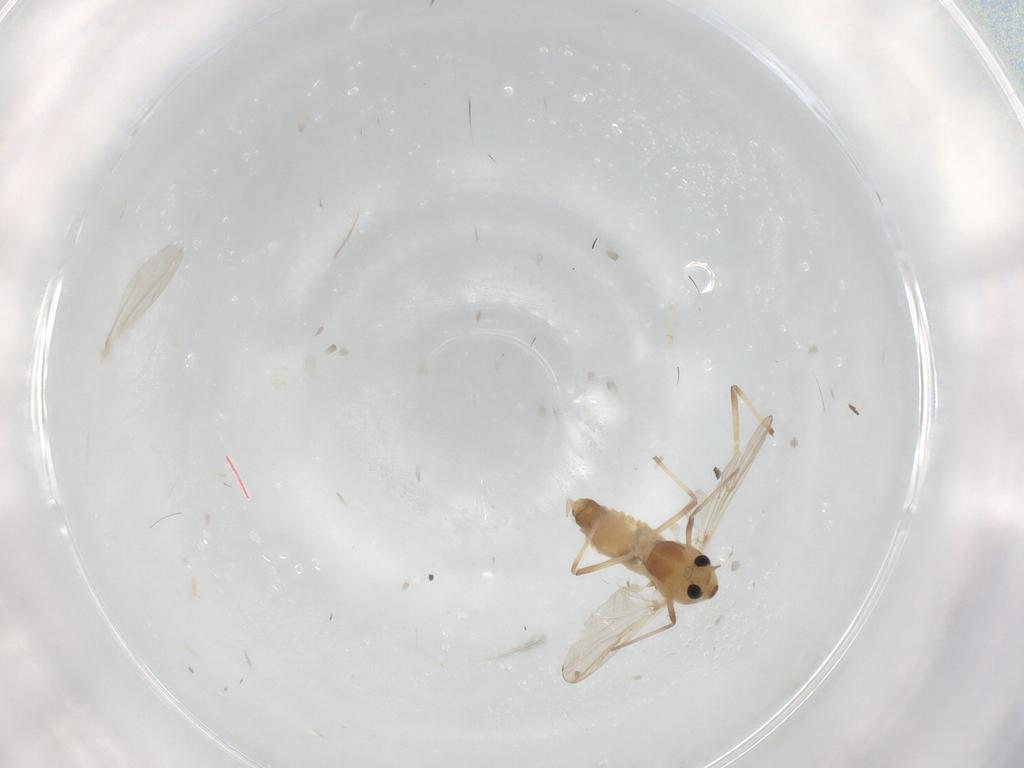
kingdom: Animalia
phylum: Arthropoda
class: Insecta
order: Diptera
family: Chironomidae
